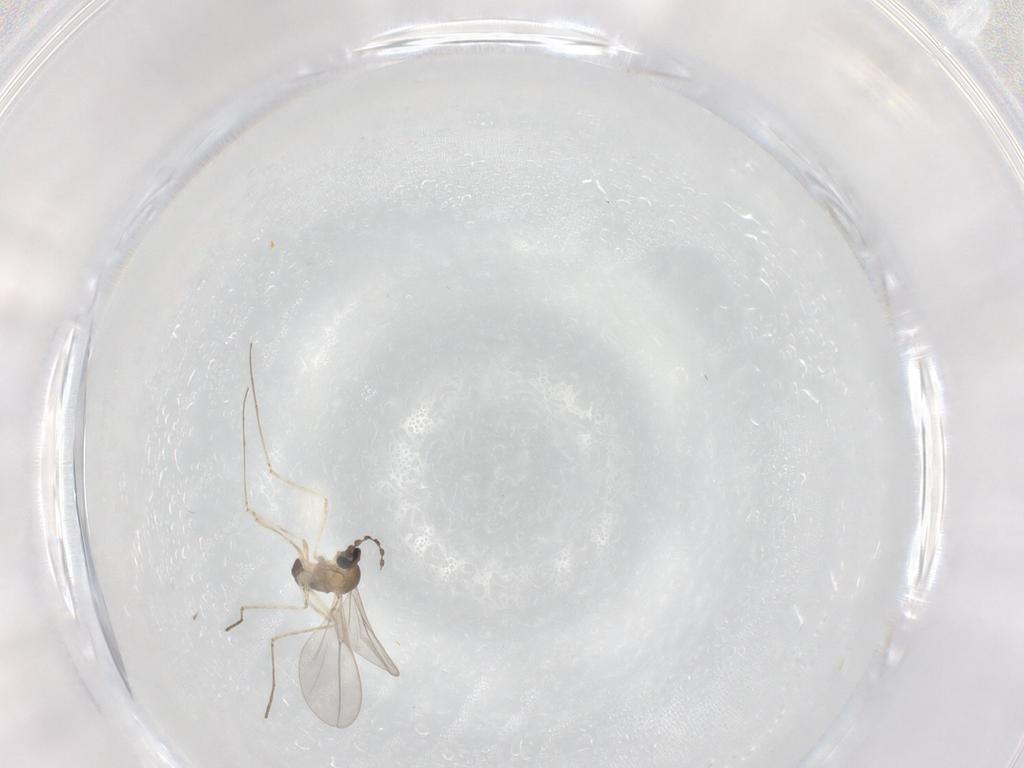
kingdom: Animalia
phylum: Arthropoda
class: Insecta
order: Diptera
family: Cecidomyiidae
